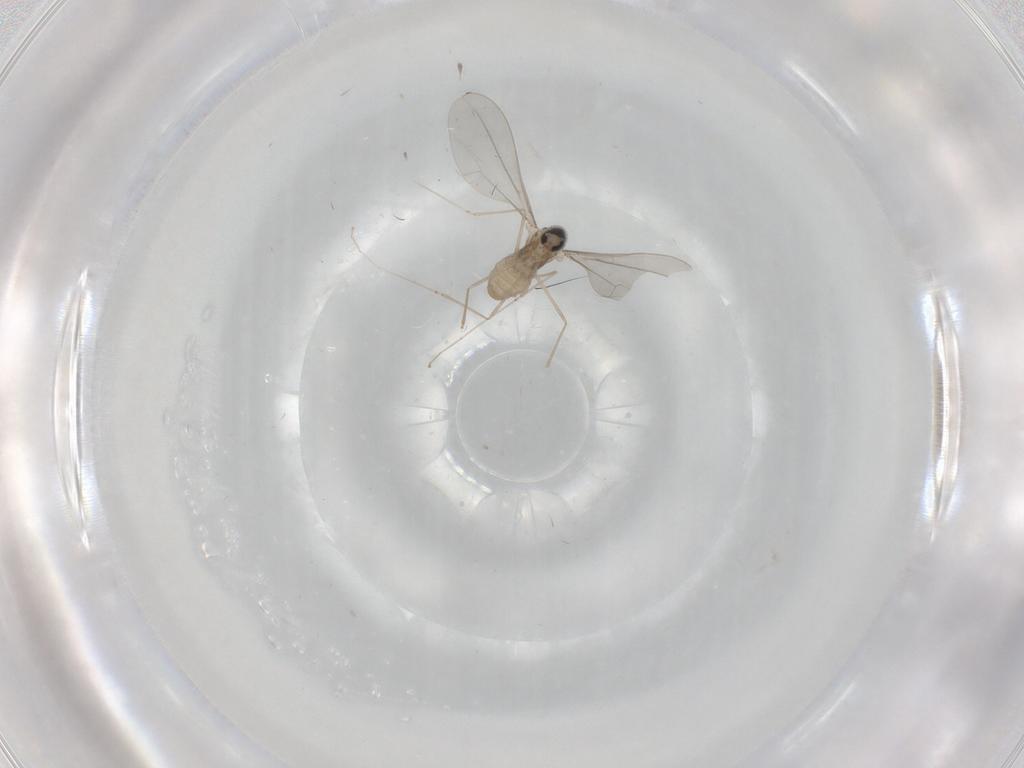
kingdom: Animalia
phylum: Arthropoda
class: Insecta
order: Diptera
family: Cecidomyiidae
